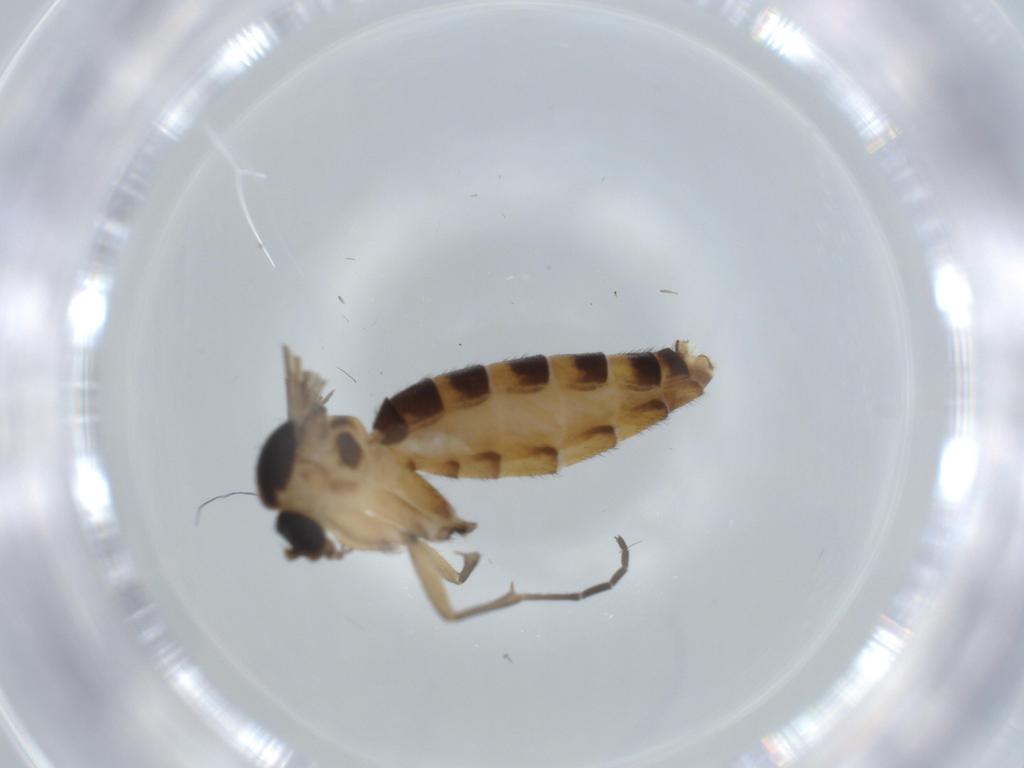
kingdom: Animalia
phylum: Arthropoda
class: Insecta
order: Diptera
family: Mycetophilidae
